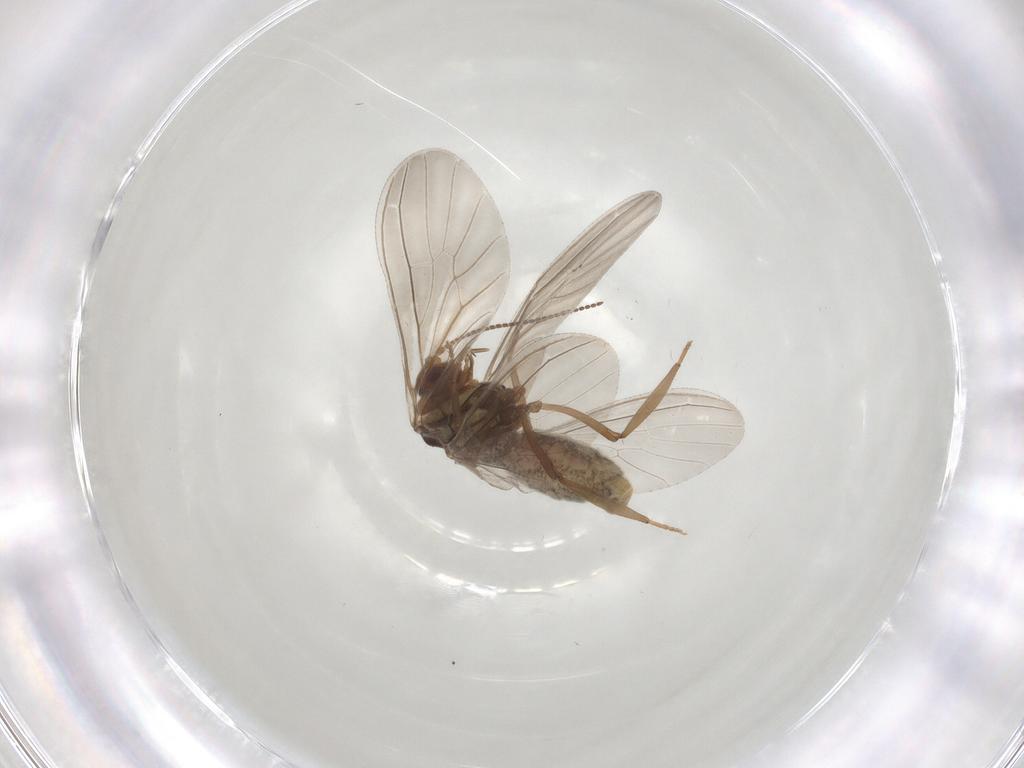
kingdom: Animalia
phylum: Arthropoda
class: Insecta
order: Neuroptera
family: Coniopterygidae
